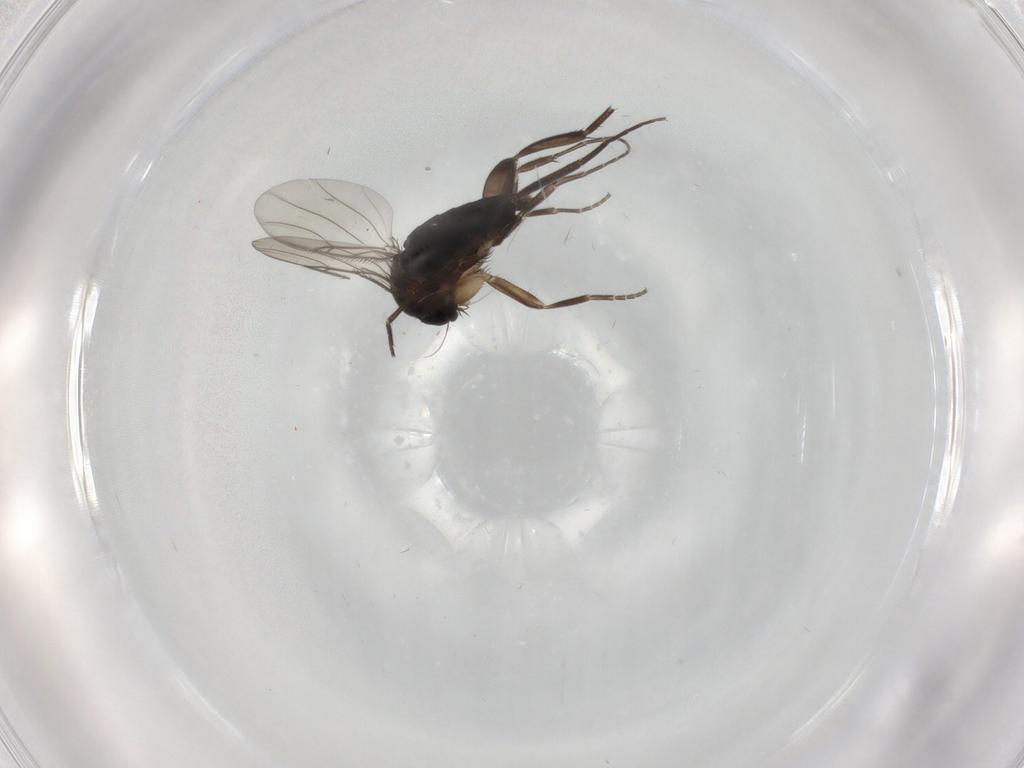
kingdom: Animalia
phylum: Arthropoda
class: Insecta
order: Diptera
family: Phoridae
